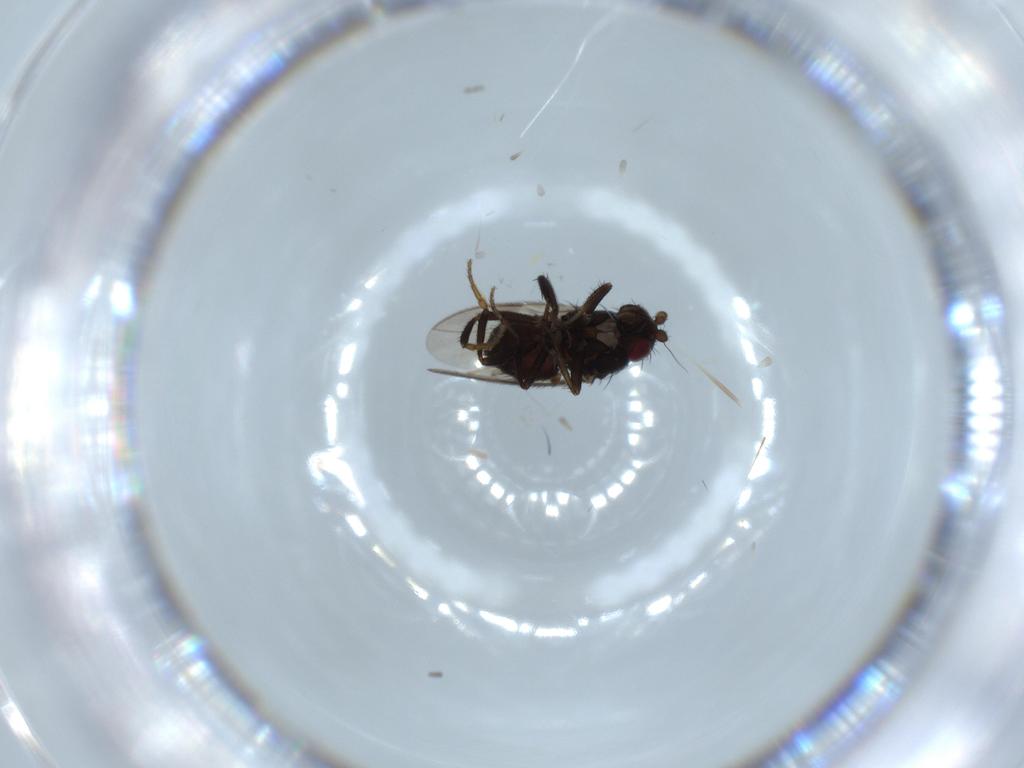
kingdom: Animalia
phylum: Arthropoda
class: Insecta
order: Diptera
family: Sphaeroceridae
